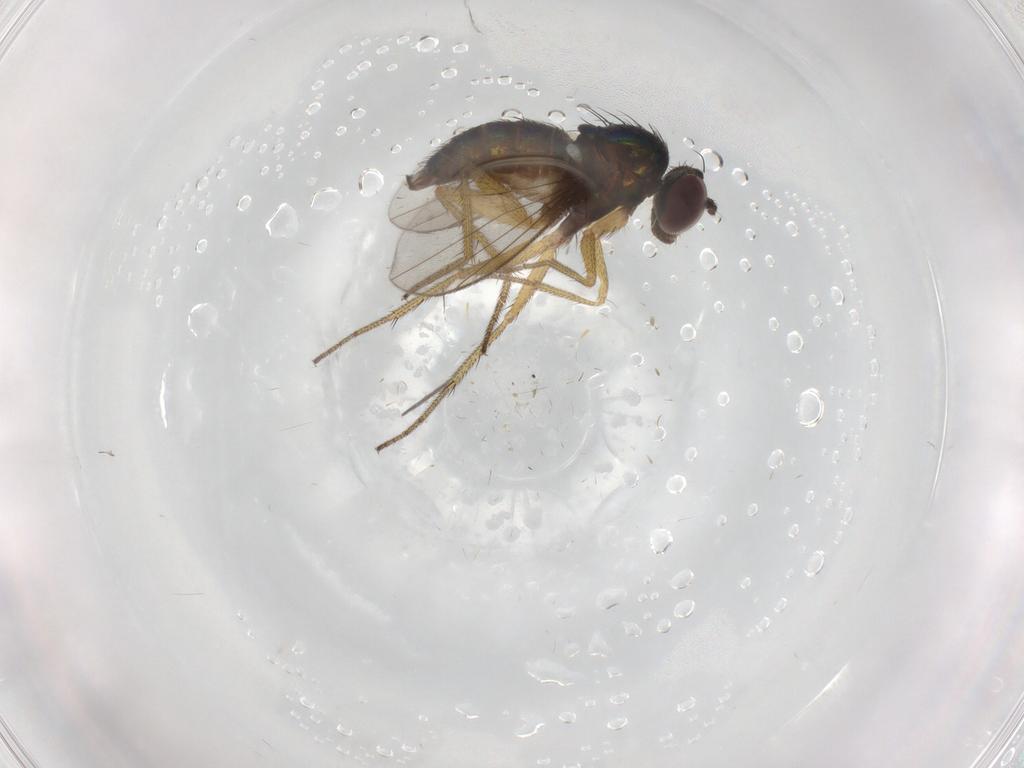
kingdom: Animalia
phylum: Arthropoda
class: Insecta
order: Diptera
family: Dolichopodidae
